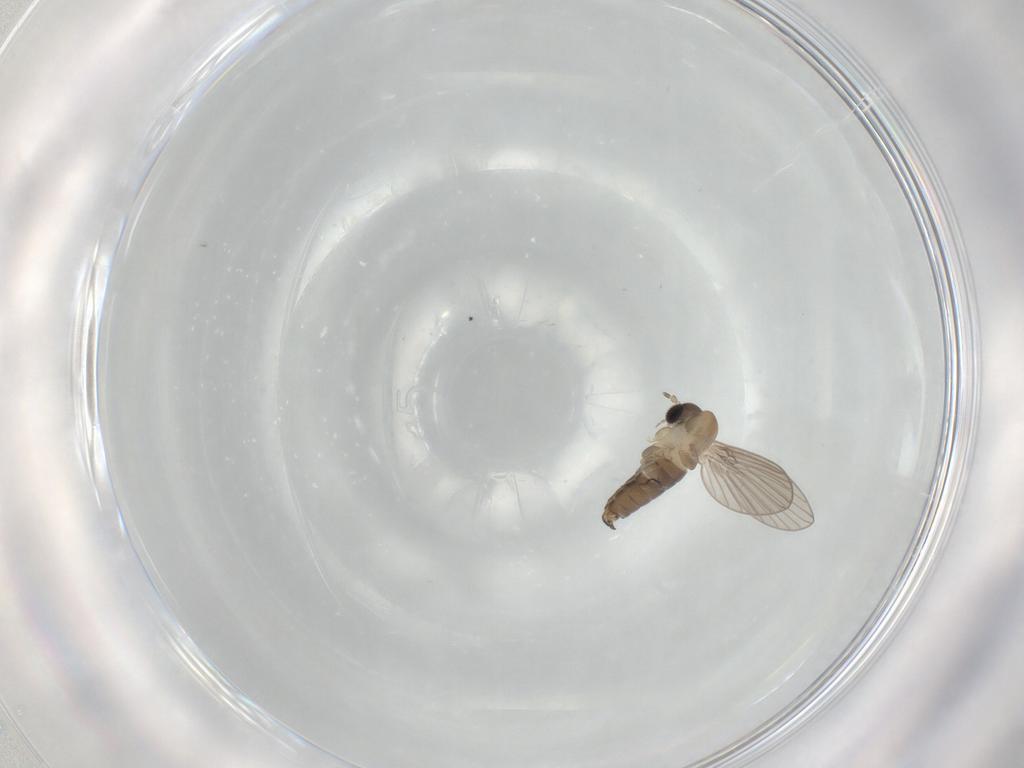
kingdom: Animalia
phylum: Arthropoda
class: Insecta
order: Diptera
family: Psychodidae
